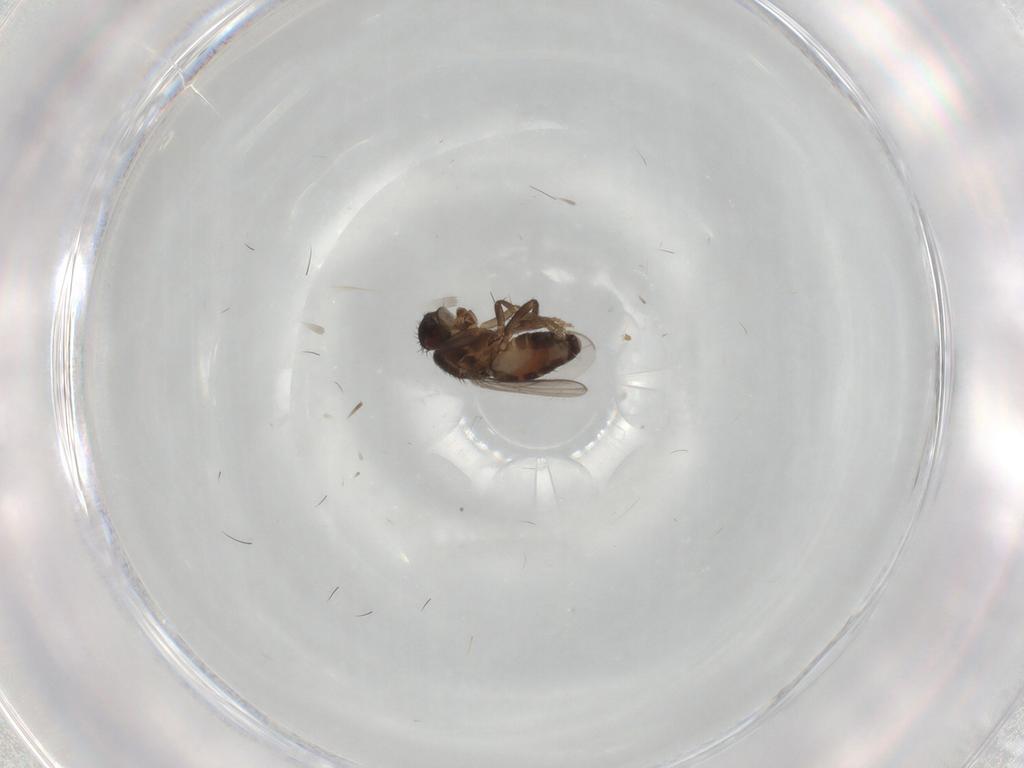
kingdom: Animalia
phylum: Arthropoda
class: Insecta
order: Diptera
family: Sphaeroceridae
